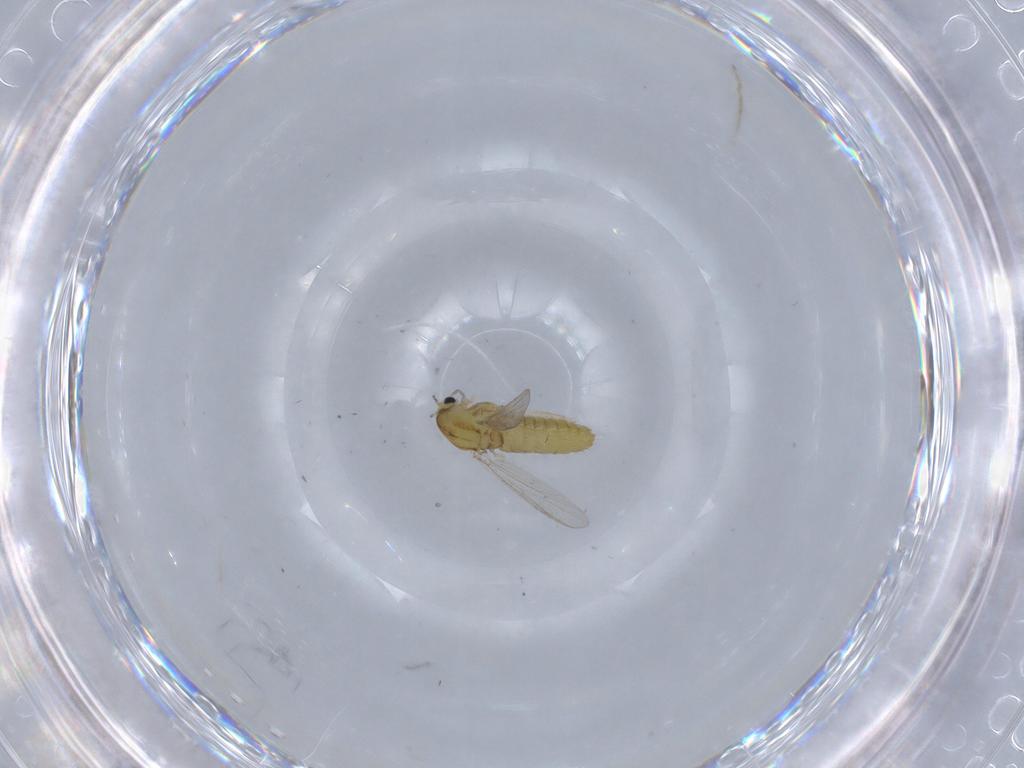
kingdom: Animalia
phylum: Arthropoda
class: Insecta
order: Diptera
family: Chironomidae
